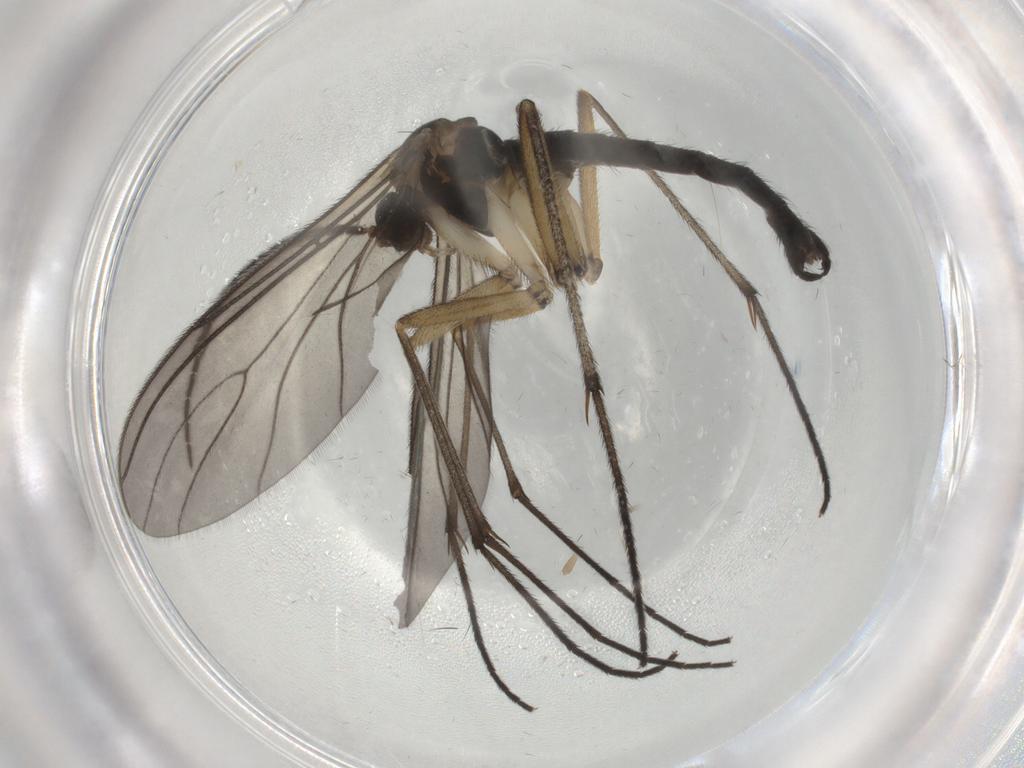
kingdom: Animalia
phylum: Arthropoda
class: Insecta
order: Diptera
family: Sciaridae
